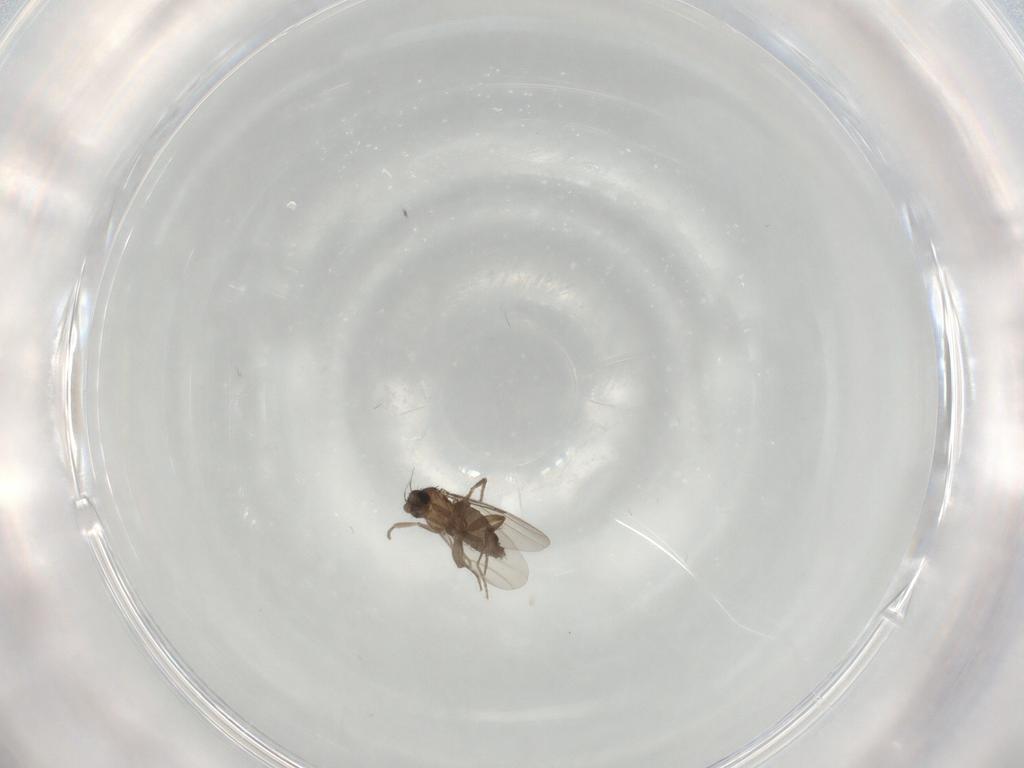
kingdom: Animalia
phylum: Arthropoda
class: Insecta
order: Diptera
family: Phoridae
